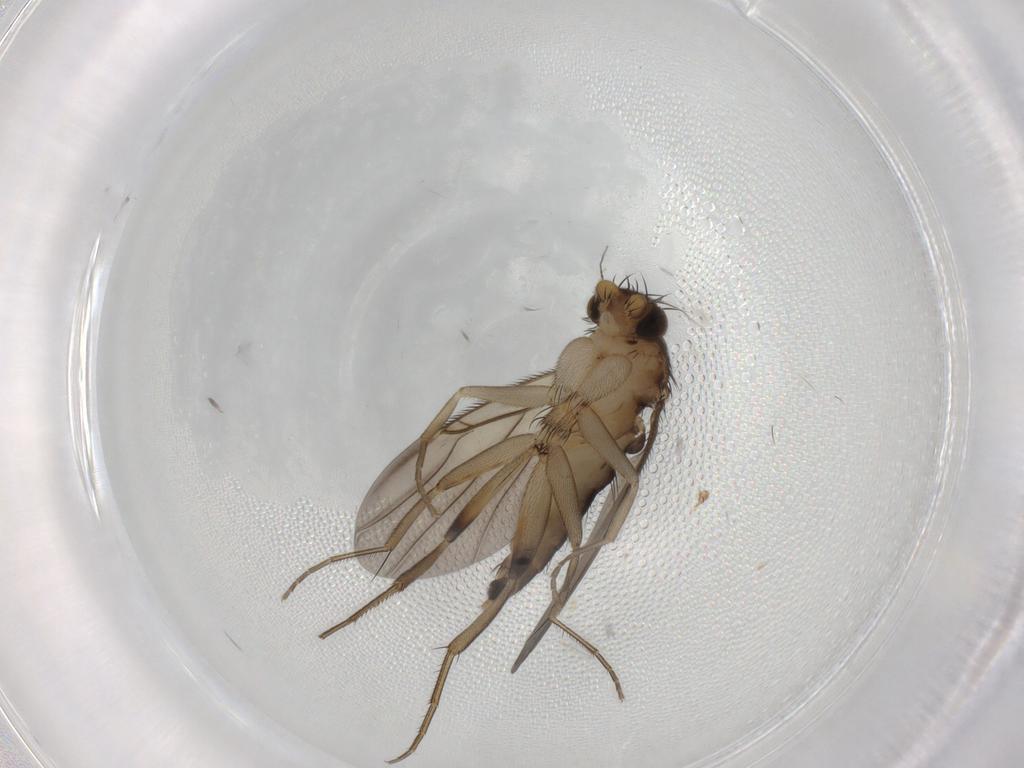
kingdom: Animalia
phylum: Arthropoda
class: Insecta
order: Diptera
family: Phoridae
